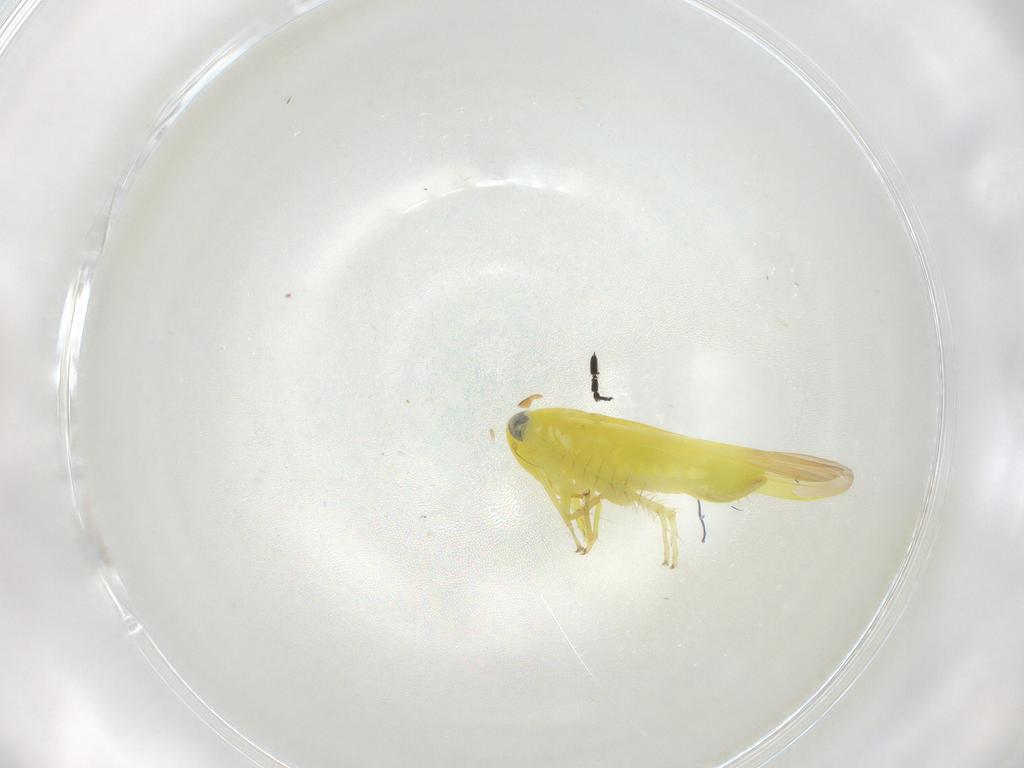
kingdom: Animalia
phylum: Arthropoda
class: Insecta
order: Hemiptera
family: Cicadellidae
